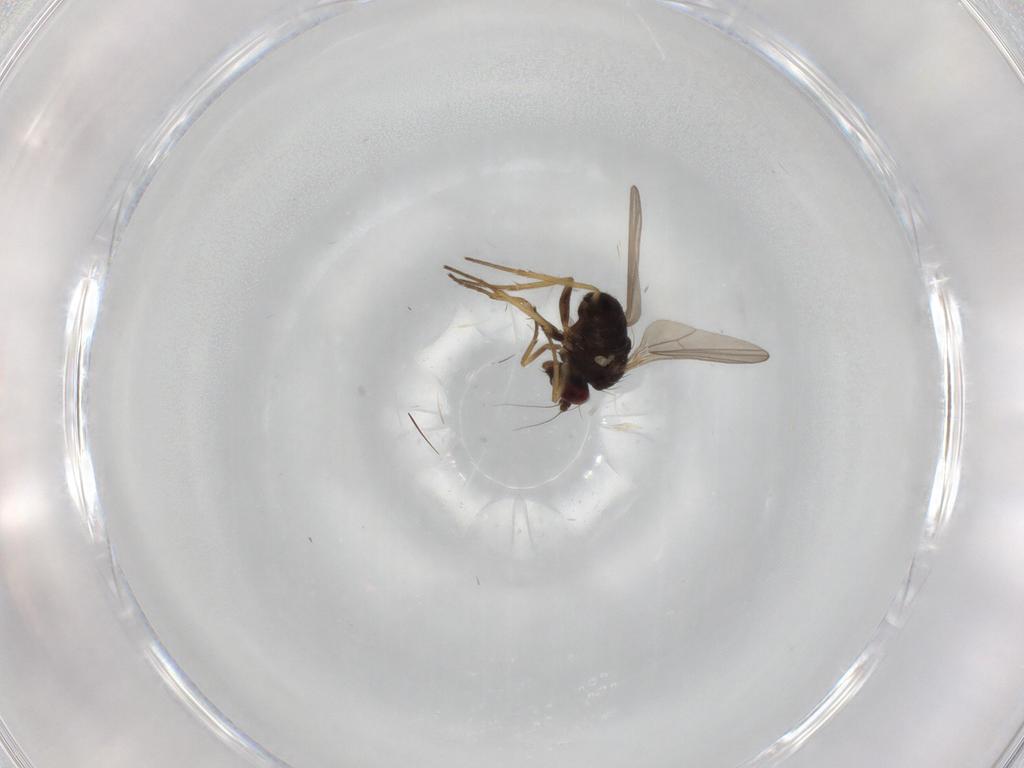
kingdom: Animalia
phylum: Arthropoda
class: Insecta
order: Diptera
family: Dolichopodidae
